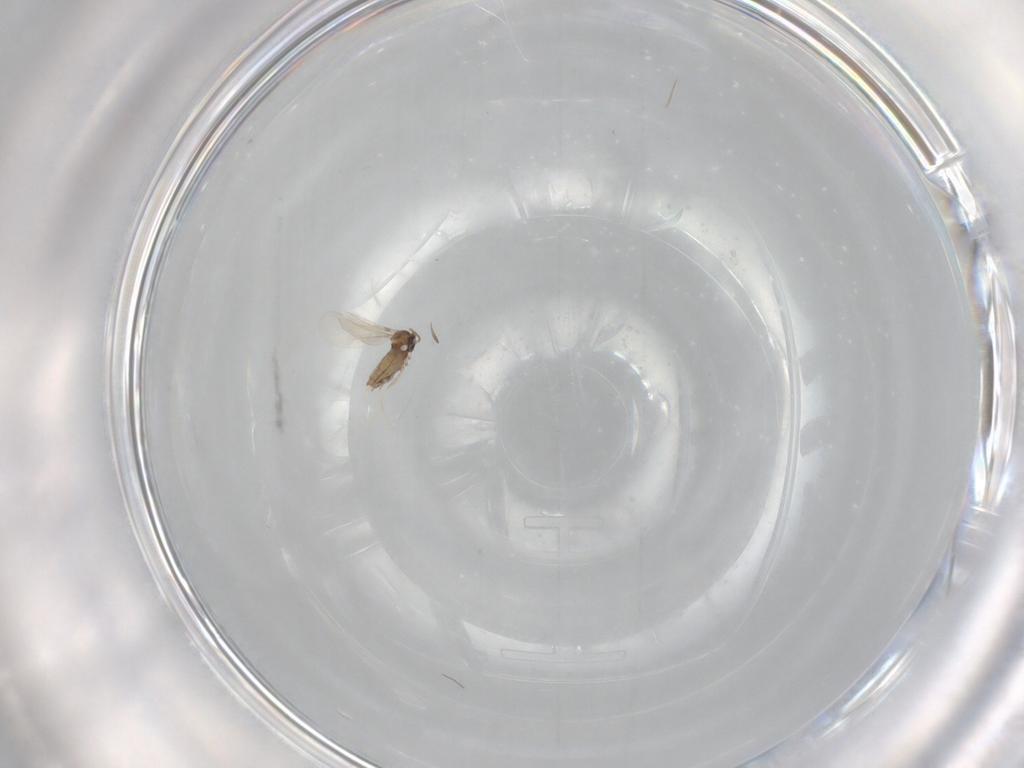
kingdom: Animalia
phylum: Arthropoda
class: Insecta
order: Diptera
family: Cecidomyiidae
